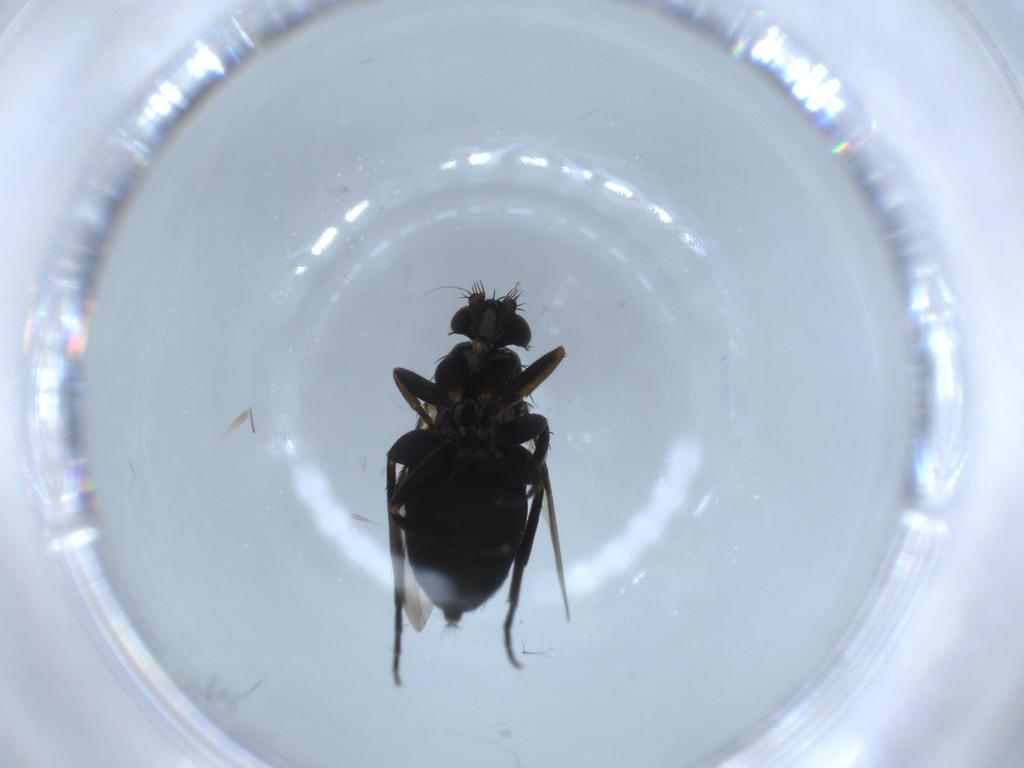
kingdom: Animalia
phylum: Arthropoda
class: Insecta
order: Diptera
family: Phoridae
